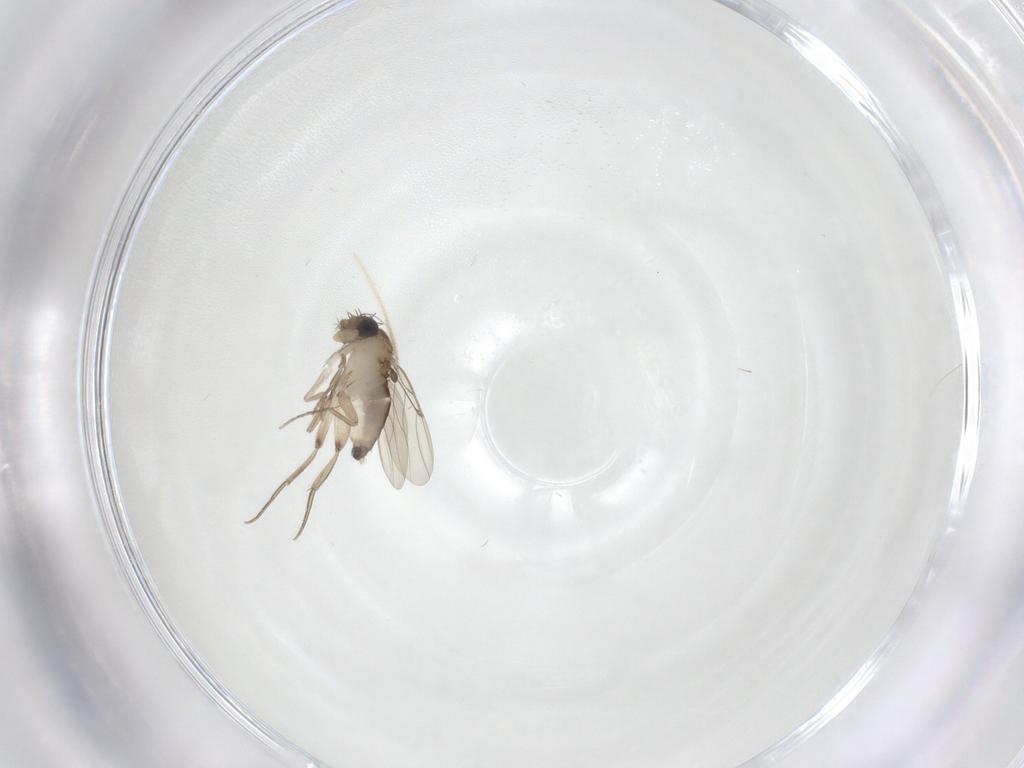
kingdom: Animalia
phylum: Arthropoda
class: Insecta
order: Diptera
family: Phoridae
